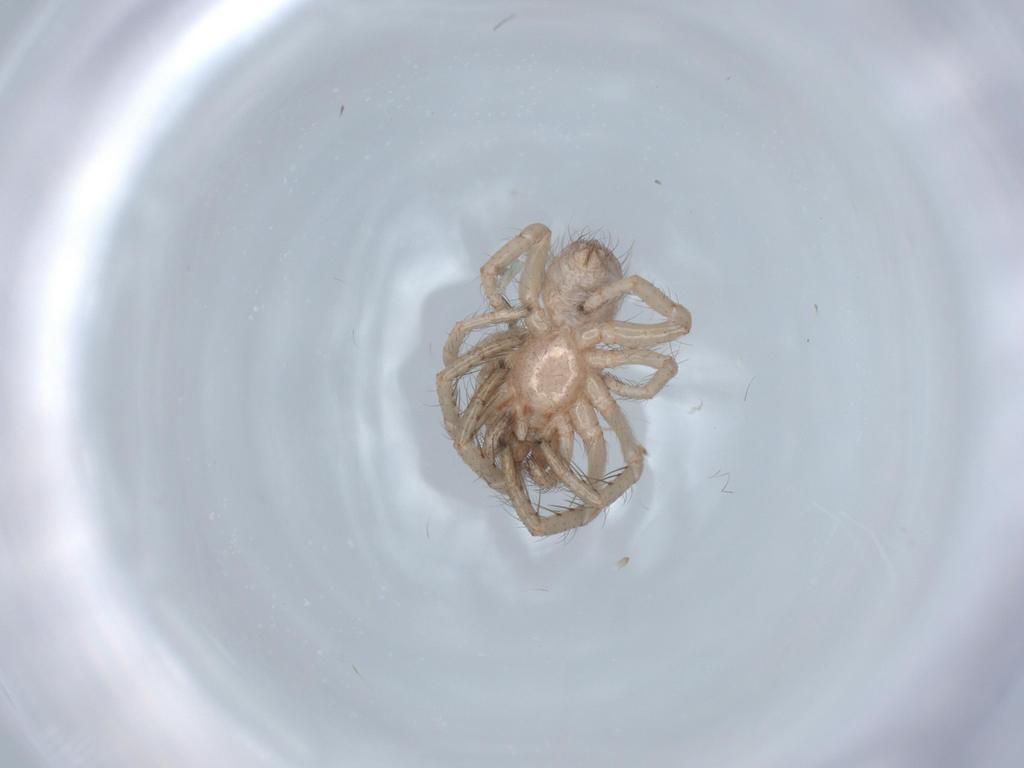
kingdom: Animalia
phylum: Arthropoda
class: Arachnida
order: Araneae
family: Segestriidae
